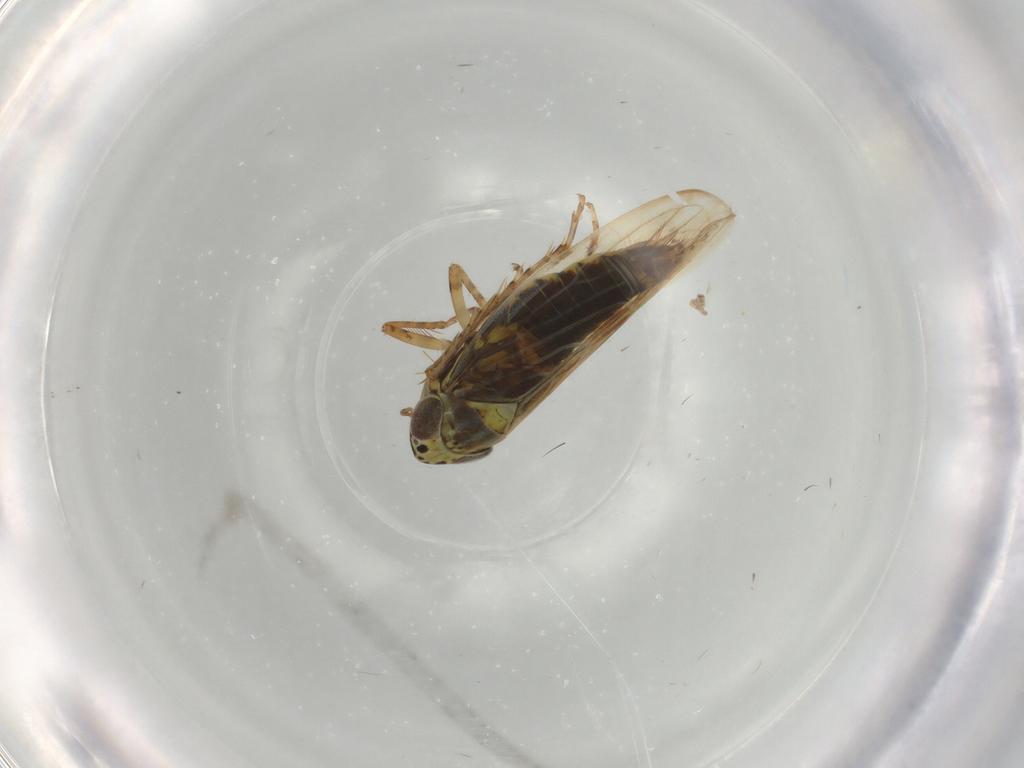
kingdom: Animalia
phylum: Arthropoda
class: Insecta
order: Hemiptera
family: Cicadellidae
